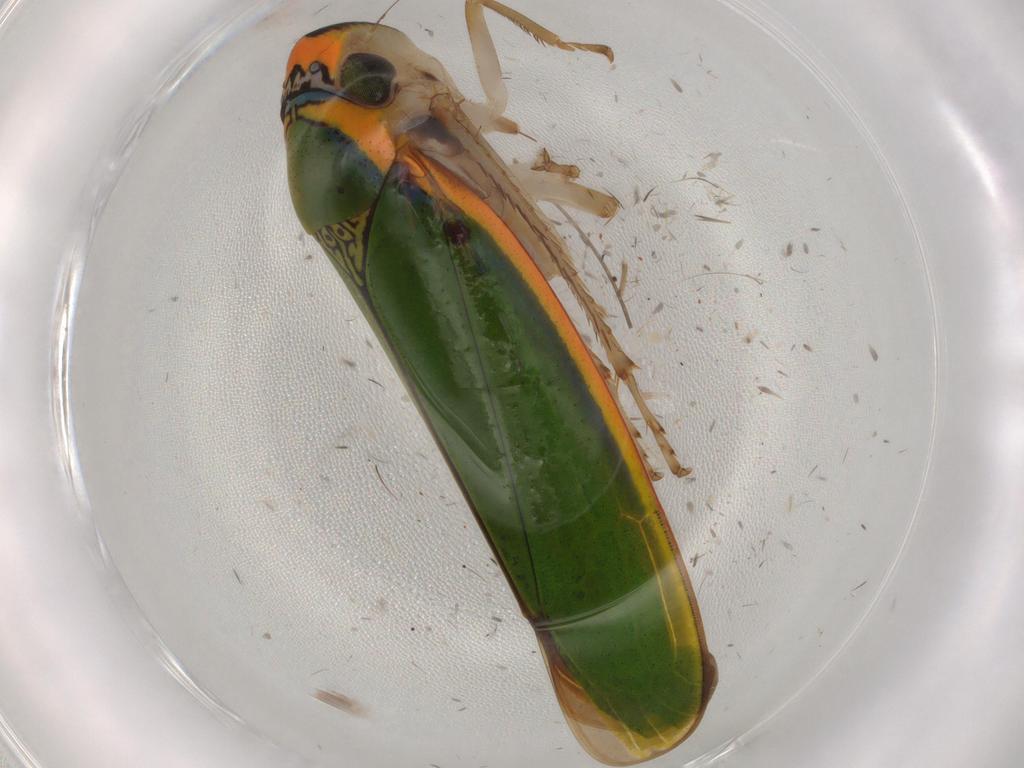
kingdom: Animalia
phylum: Arthropoda
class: Insecta
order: Hemiptera
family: Cicadellidae
